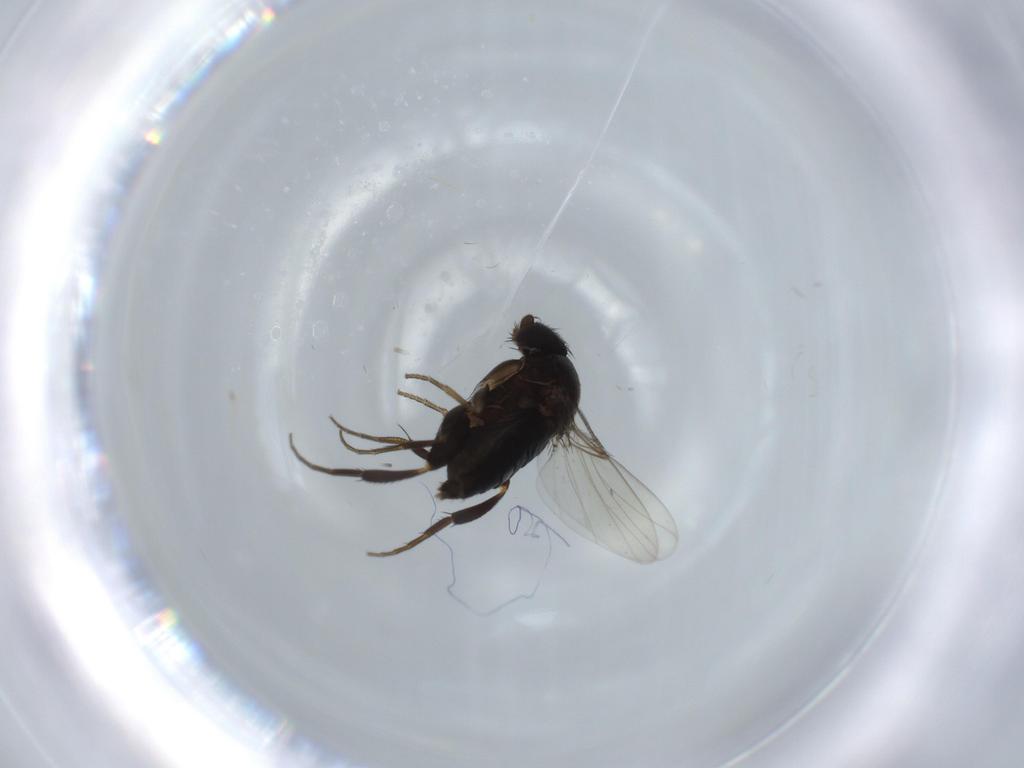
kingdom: Animalia
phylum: Arthropoda
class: Insecta
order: Diptera
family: Phoridae
